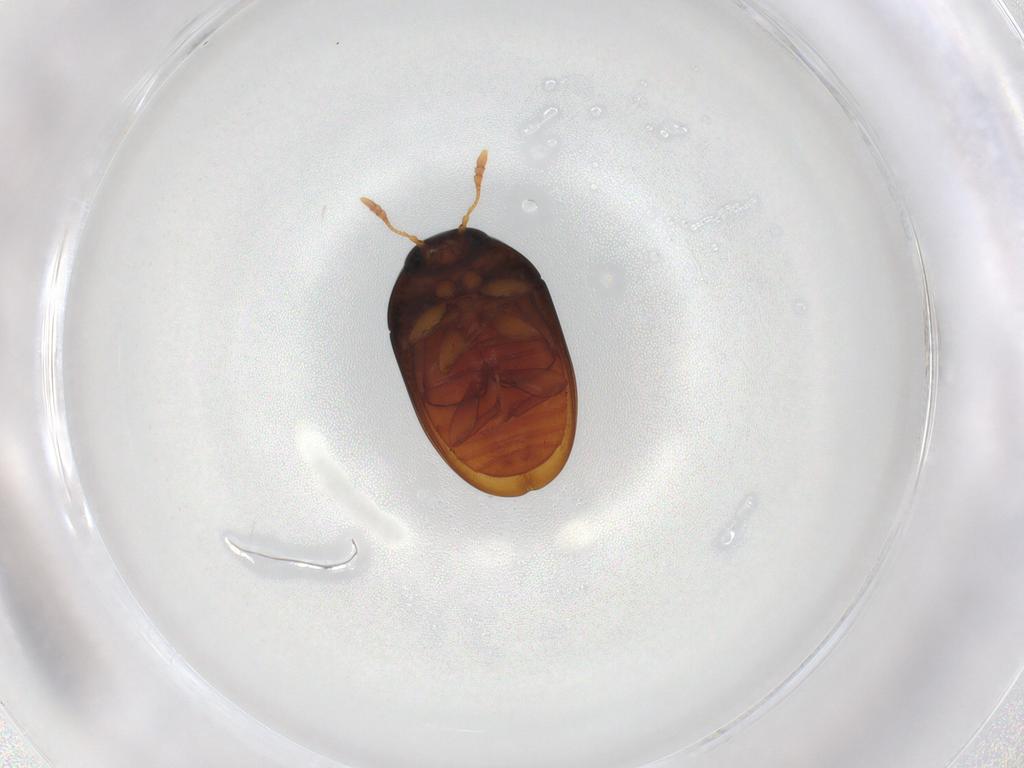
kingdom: Animalia
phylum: Arthropoda
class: Insecta
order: Coleoptera
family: Phalacridae
